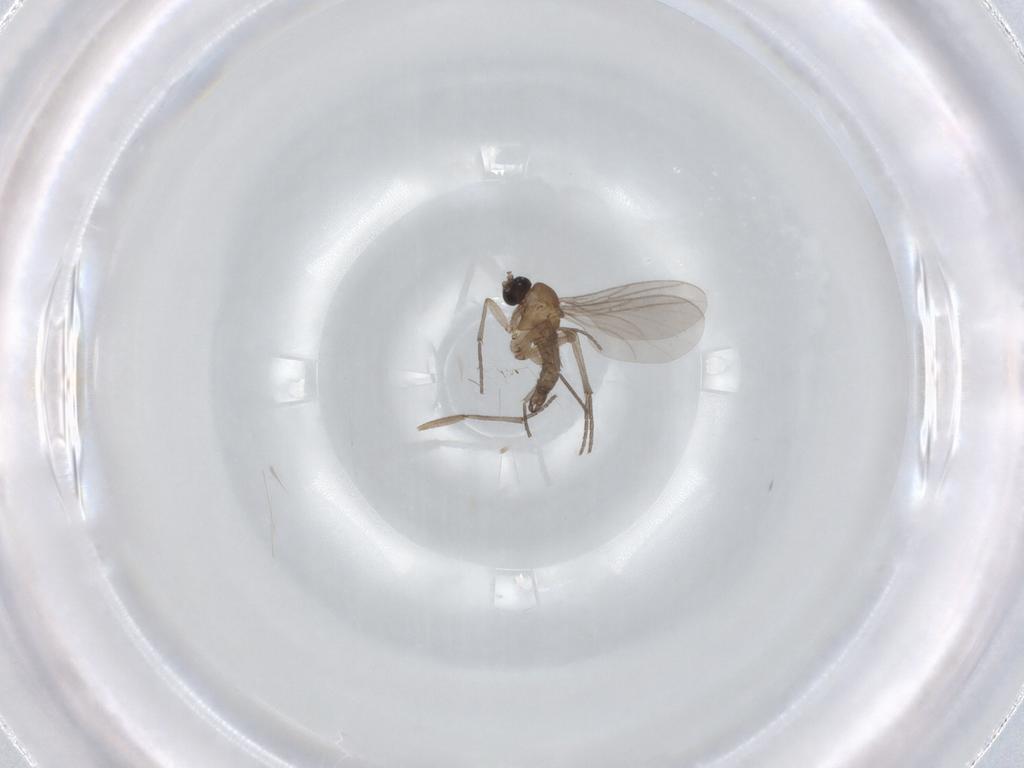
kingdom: Animalia
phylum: Arthropoda
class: Insecta
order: Diptera
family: Sciaridae
